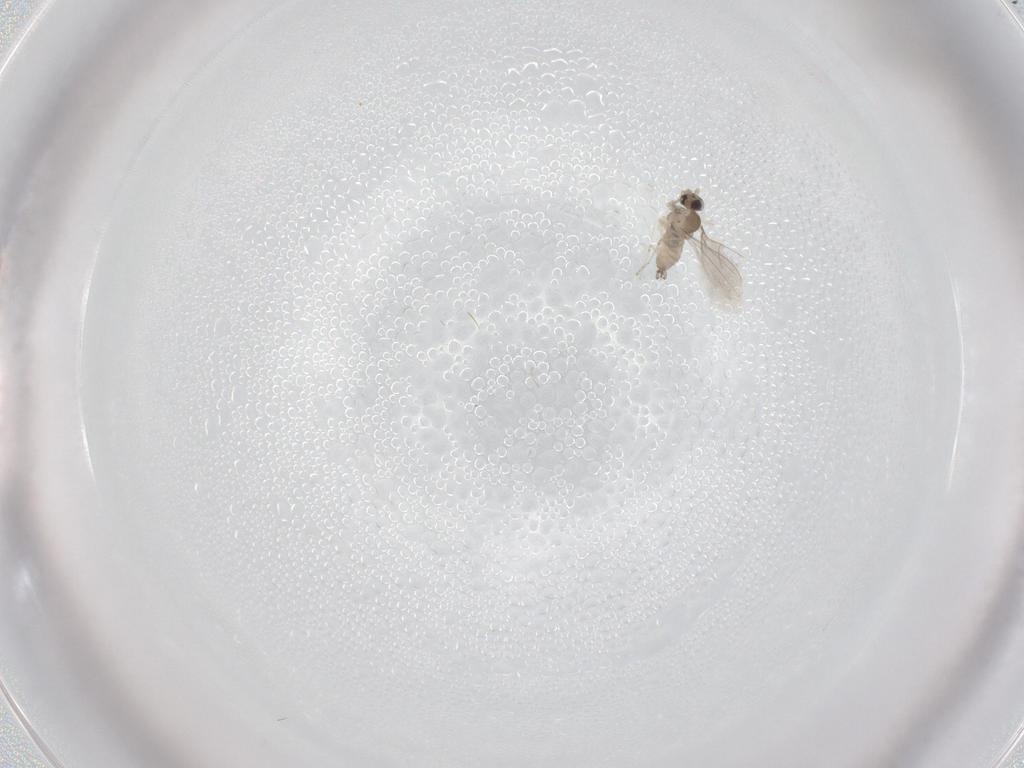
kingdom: Animalia
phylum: Arthropoda
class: Insecta
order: Diptera
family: Cecidomyiidae
